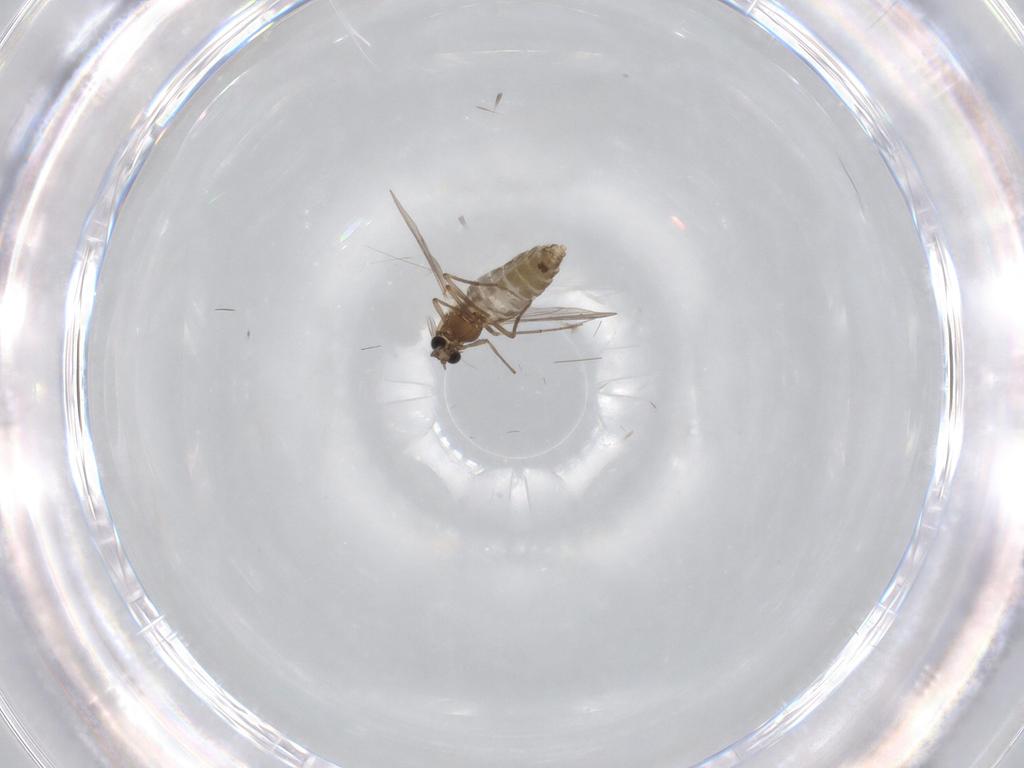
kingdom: Animalia
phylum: Arthropoda
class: Insecta
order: Diptera
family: Chironomidae
